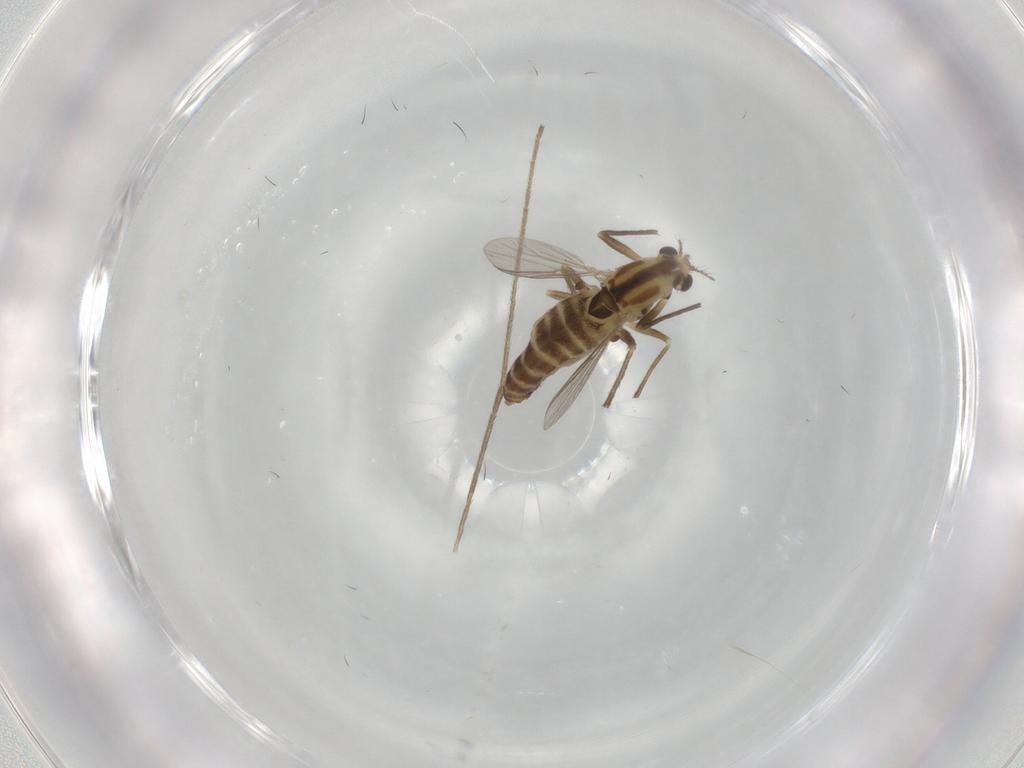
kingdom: Animalia
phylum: Arthropoda
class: Insecta
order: Diptera
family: Chironomidae
